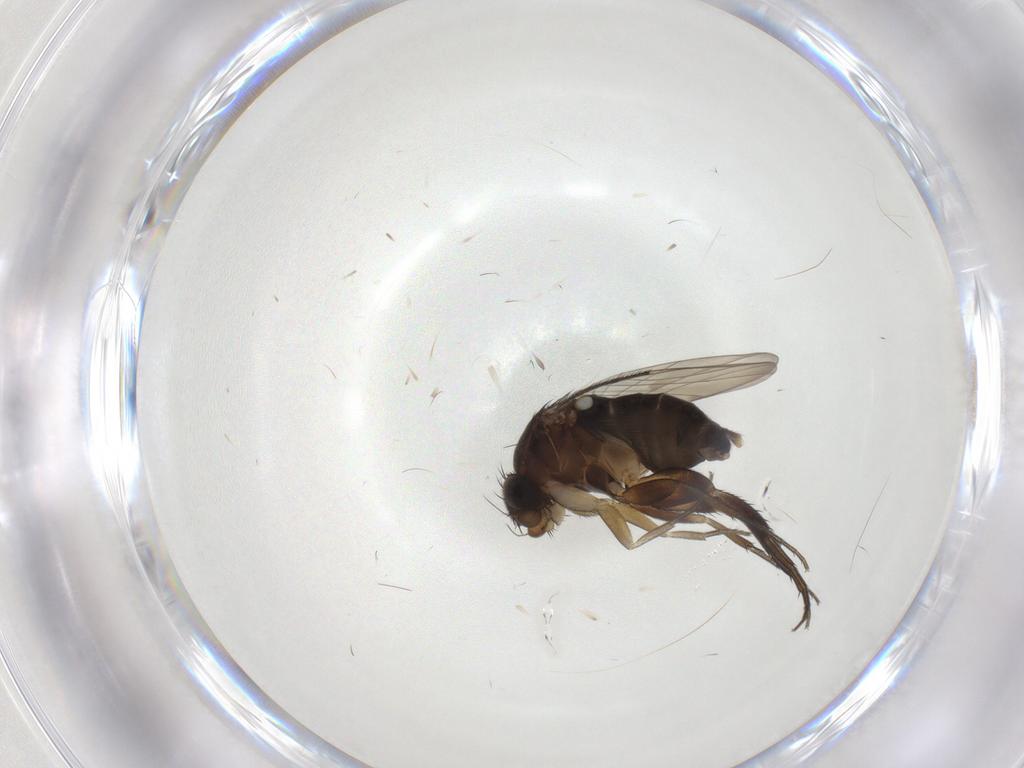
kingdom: Animalia
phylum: Arthropoda
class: Insecta
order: Diptera
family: Phoridae
